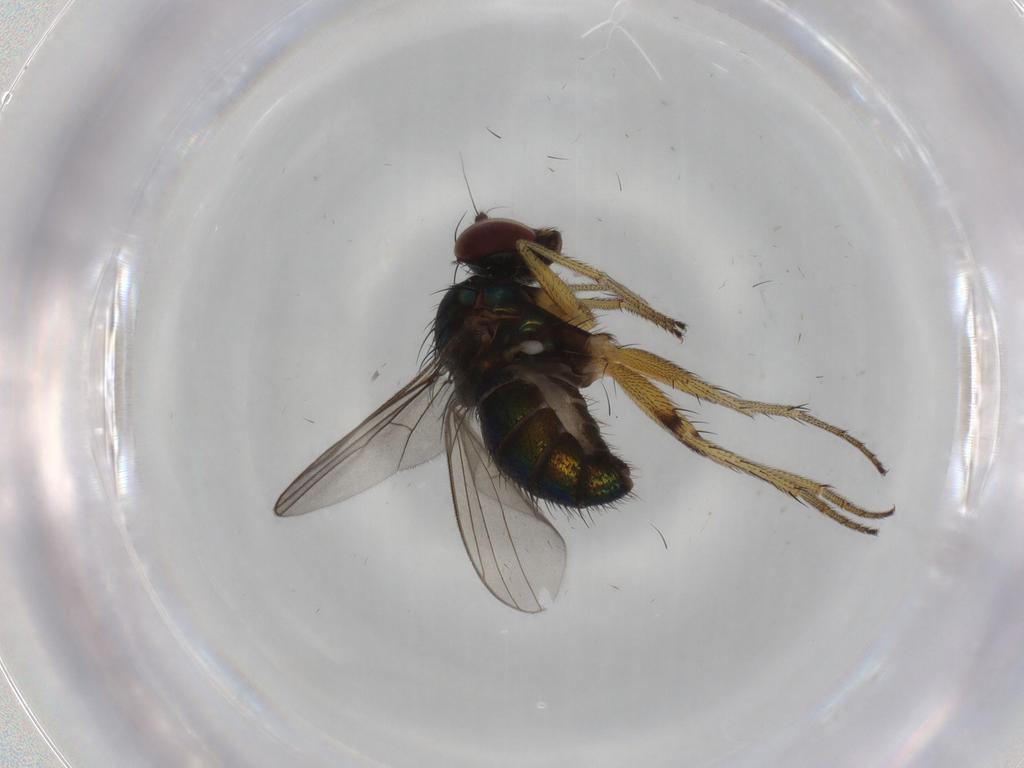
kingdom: Animalia
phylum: Arthropoda
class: Insecta
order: Diptera
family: Dolichopodidae
